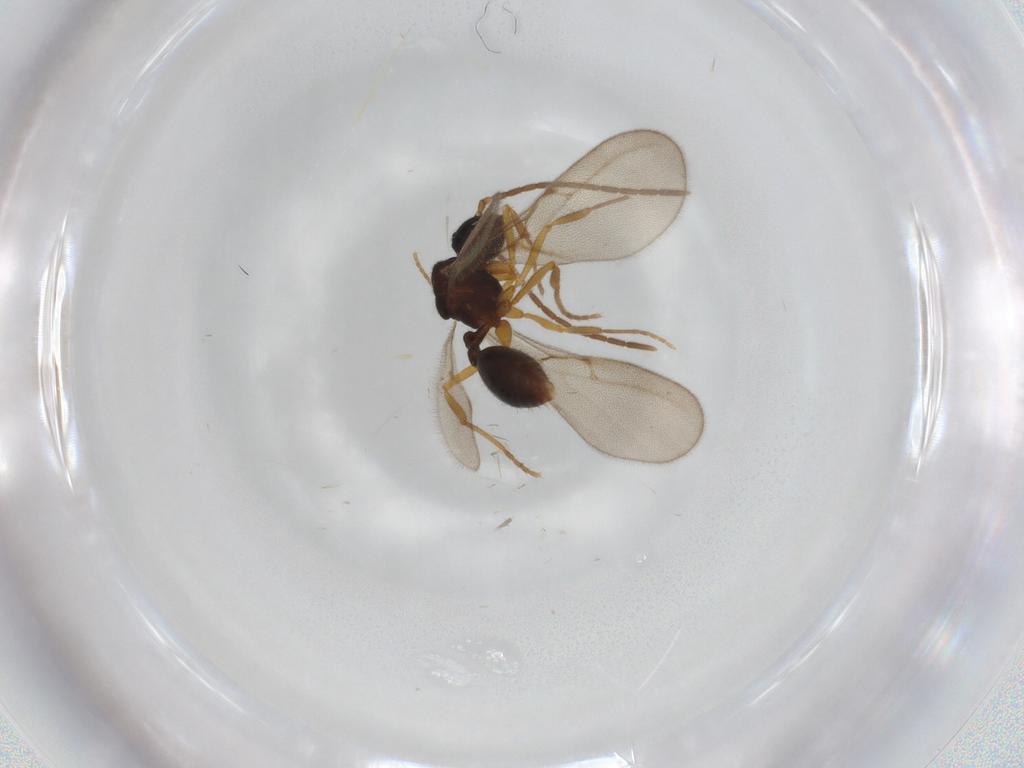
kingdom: Animalia
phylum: Arthropoda
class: Insecta
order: Hymenoptera
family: Formicidae
